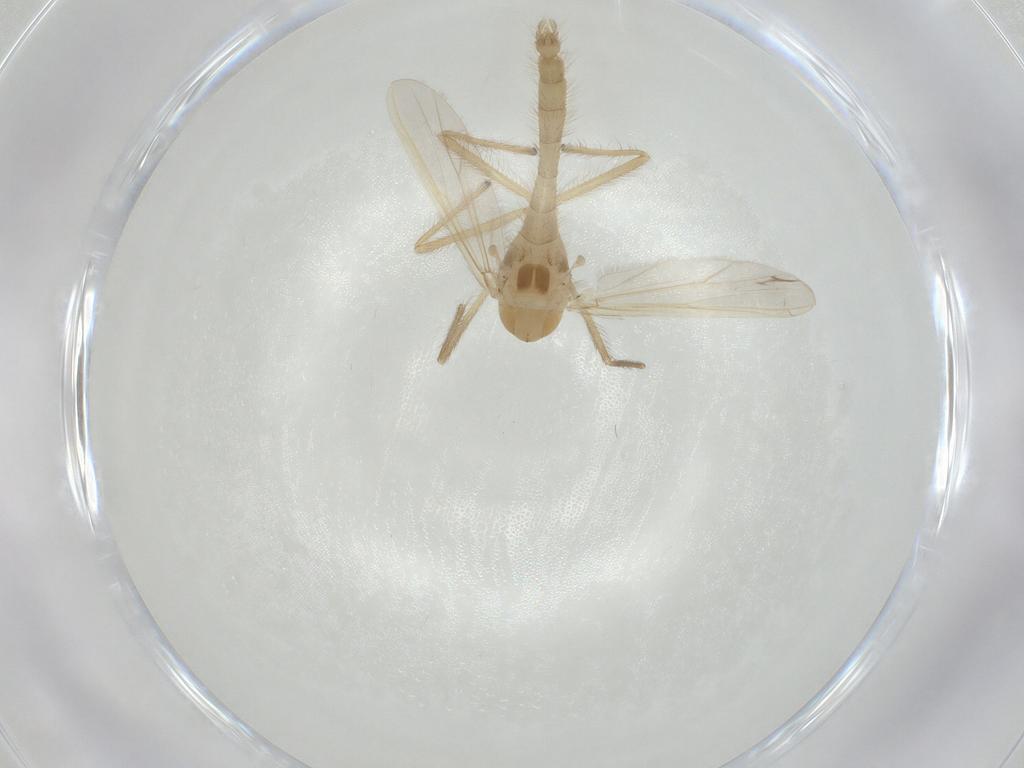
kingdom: Animalia
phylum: Arthropoda
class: Insecta
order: Diptera
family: Chironomidae
